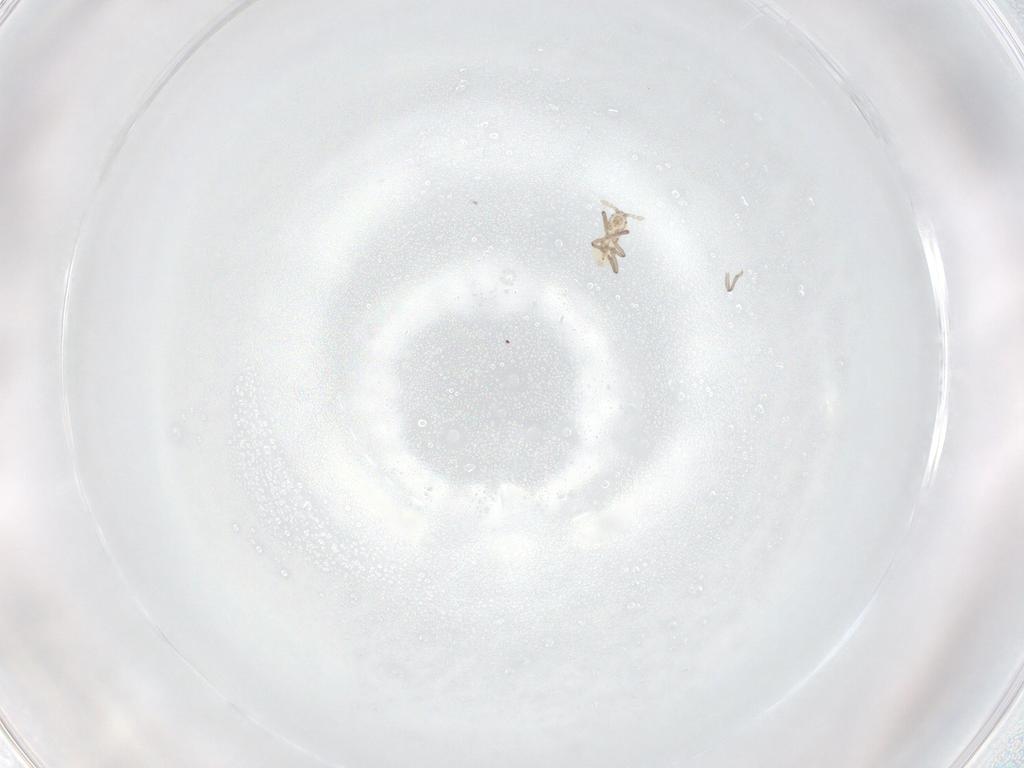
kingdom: Animalia
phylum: Arthropoda
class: Insecta
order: Hemiptera
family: Aphididae
